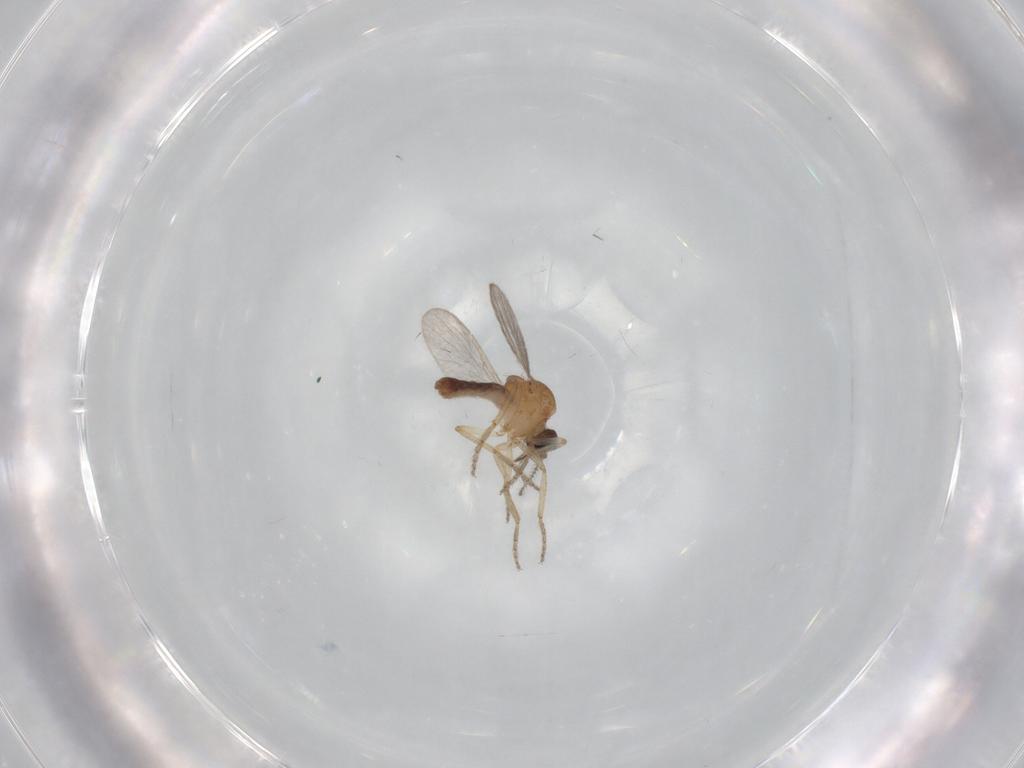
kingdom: Animalia
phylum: Arthropoda
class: Insecta
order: Diptera
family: Ceratopogonidae
